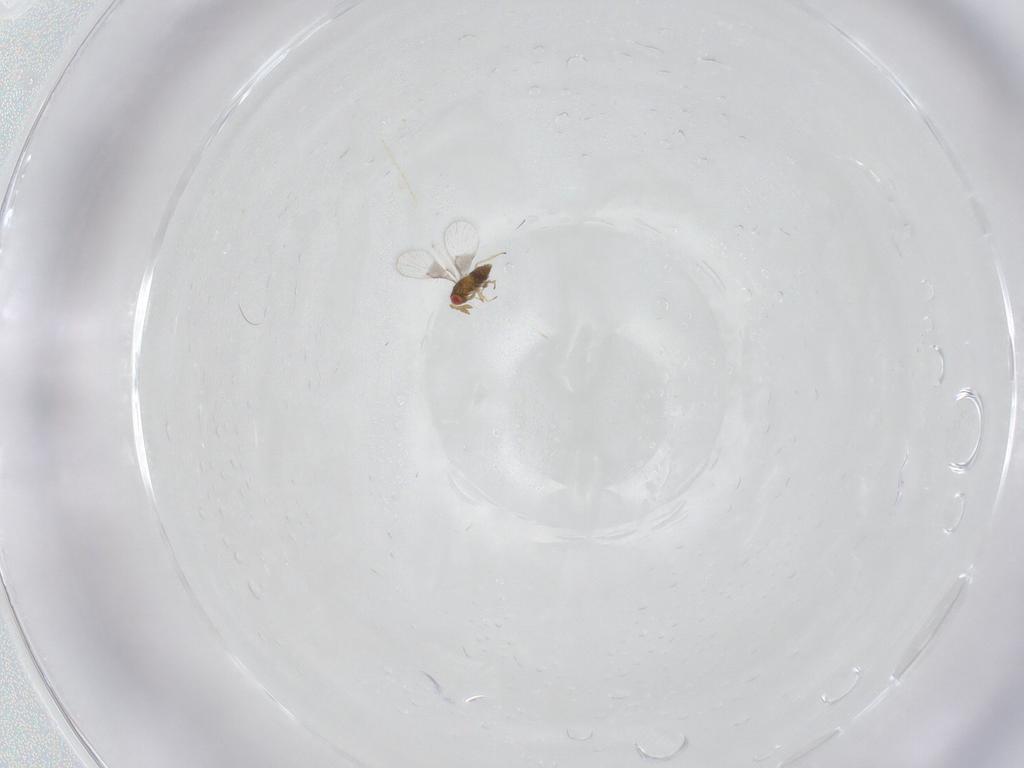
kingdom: Animalia
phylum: Arthropoda
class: Insecta
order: Hymenoptera
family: Trichogrammatidae
